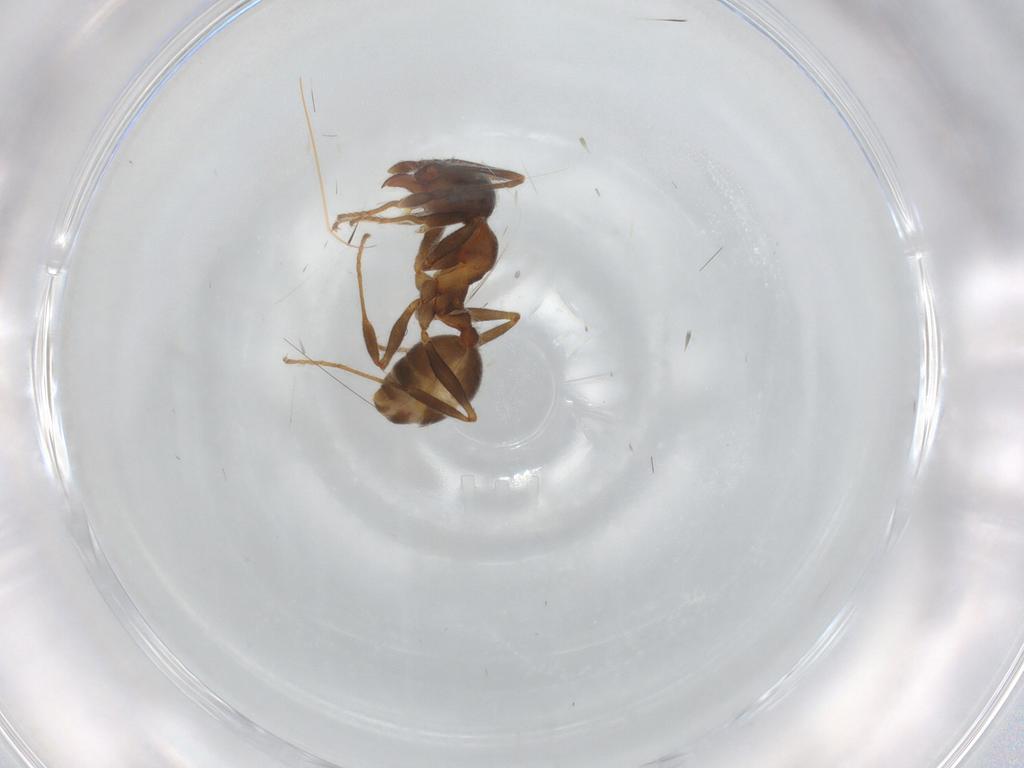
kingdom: Animalia
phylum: Arthropoda
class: Insecta
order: Hymenoptera
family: Formicidae
